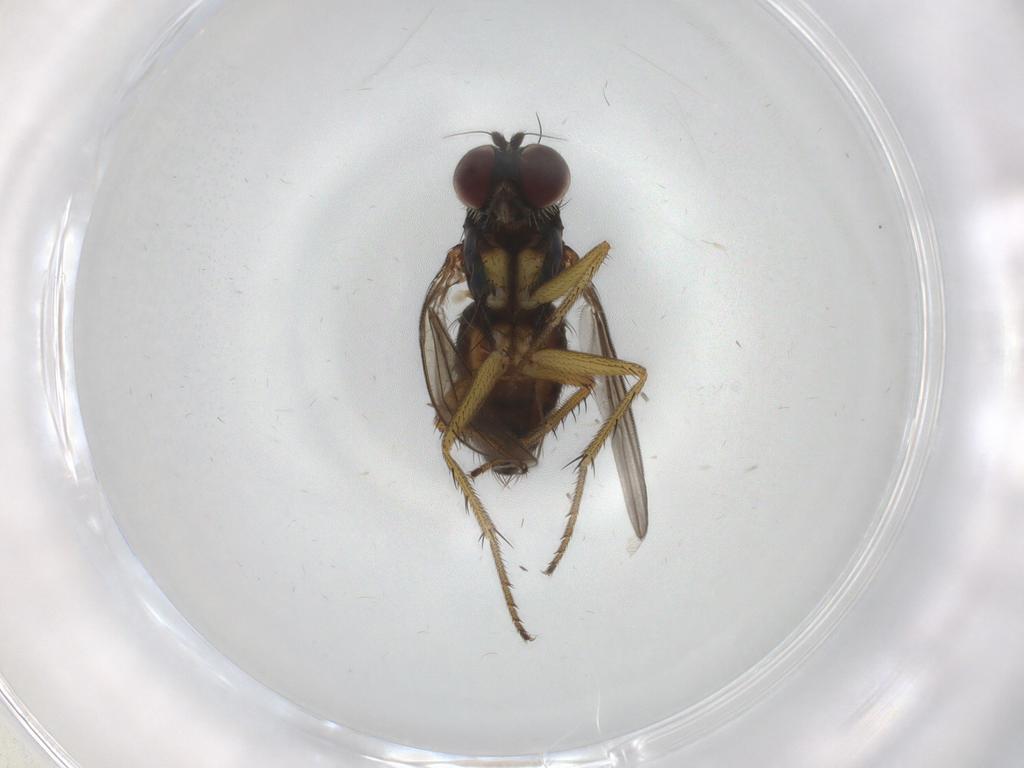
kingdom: Animalia
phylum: Arthropoda
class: Insecta
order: Diptera
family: Dolichopodidae
